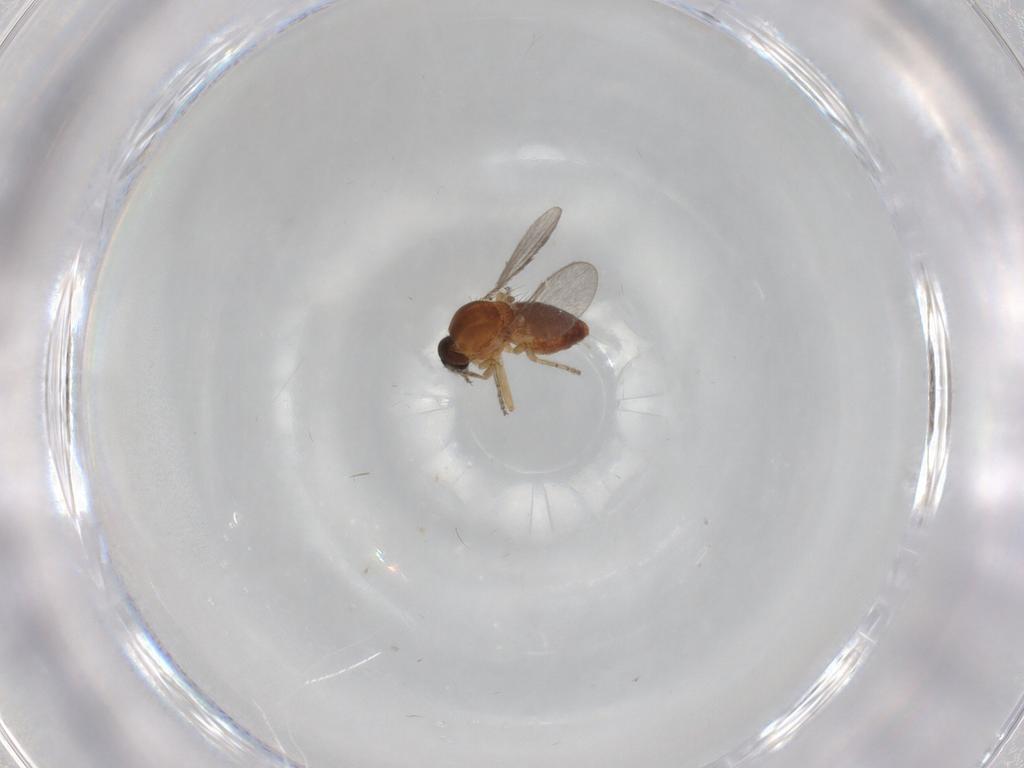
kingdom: Animalia
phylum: Arthropoda
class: Insecta
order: Diptera
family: Ceratopogonidae
